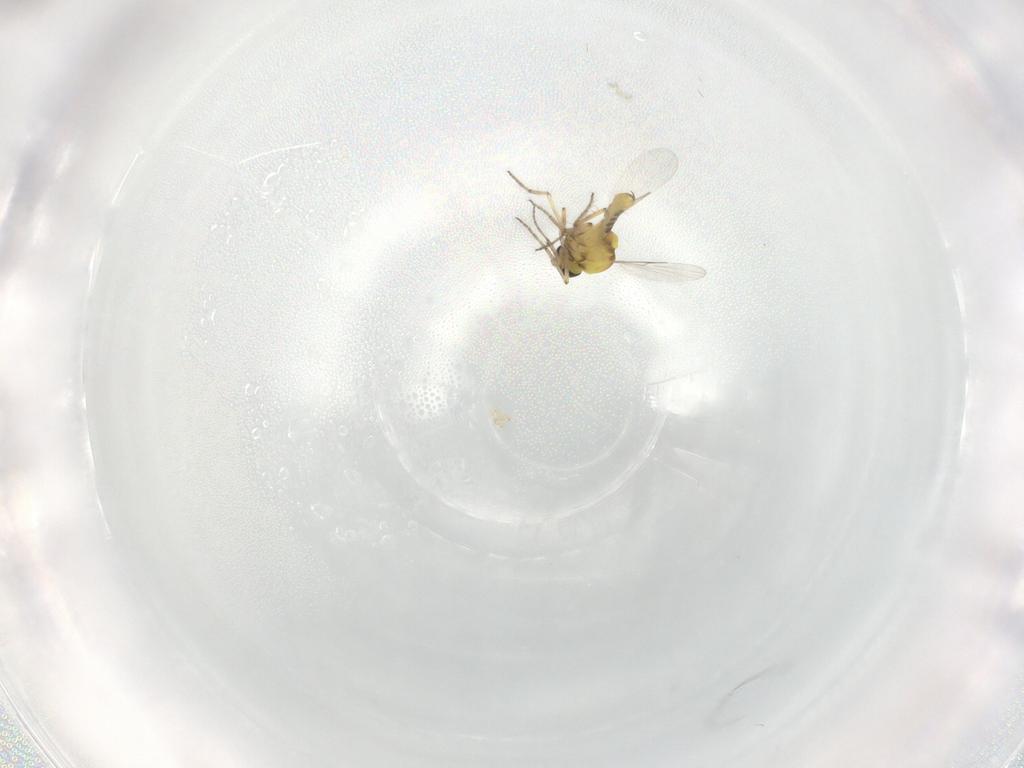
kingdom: Animalia
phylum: Arthropoda
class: Insecta
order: Diptera
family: Ceratopogonidae
